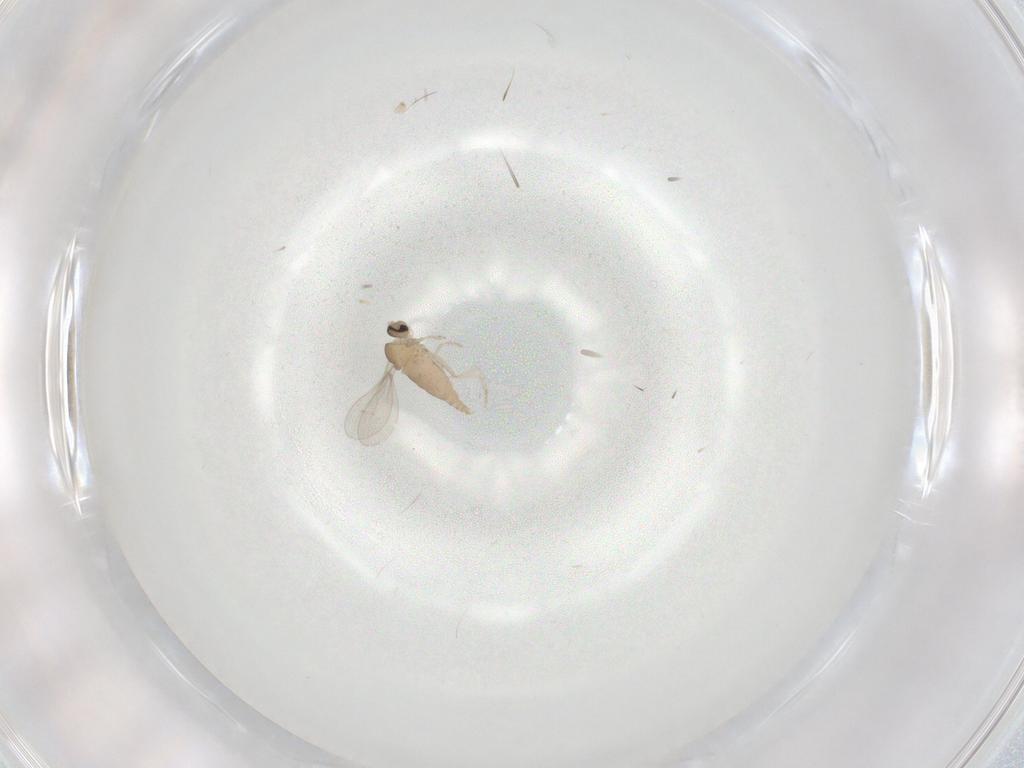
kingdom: Animalia
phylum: Arthropoda
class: Insecta
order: Diptera
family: Cecidomyiidae
